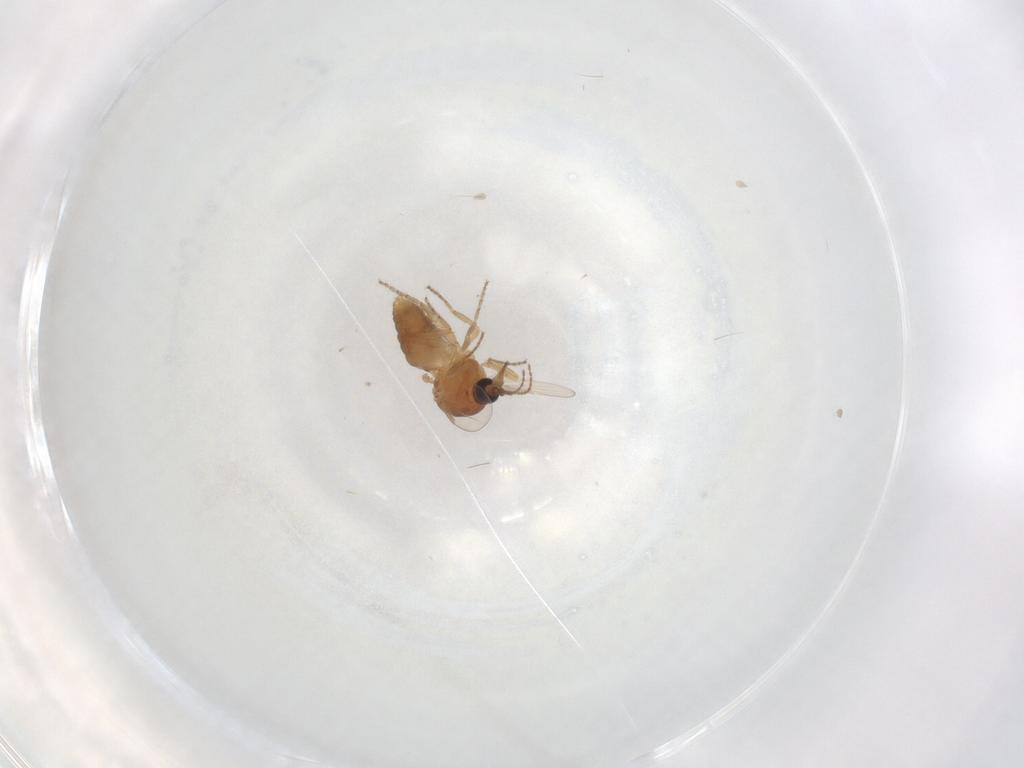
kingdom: Animalia
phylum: Arthropoda
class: Insecta
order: Diptera
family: Ceratopogonidae
